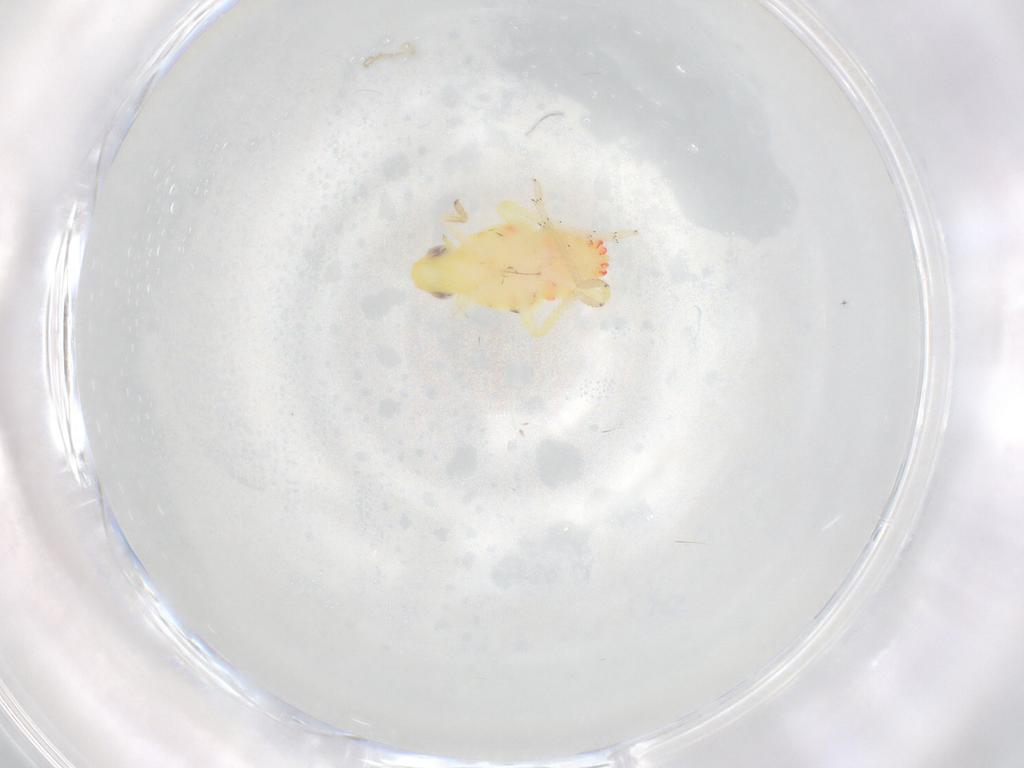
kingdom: Animalia
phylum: Arthropoda
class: Insecta
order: Hemiptera
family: Tropiduchidae
